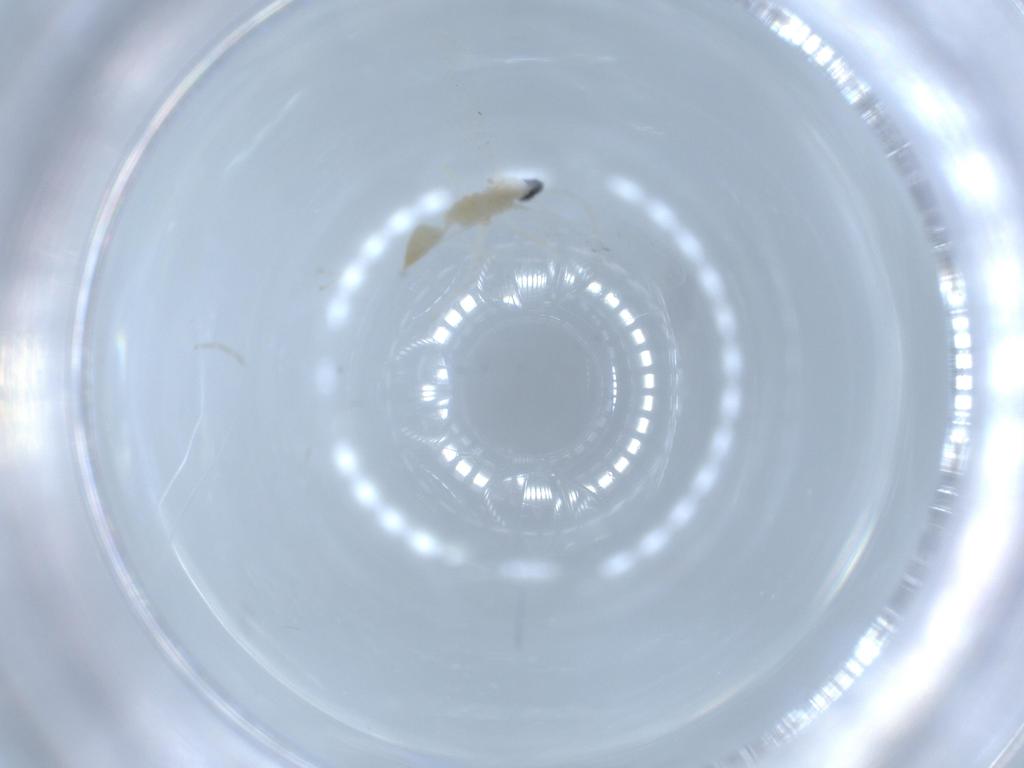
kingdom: Animalia
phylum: Arthropoda
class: Insecta
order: Diptera
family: Cecidomyiidae
